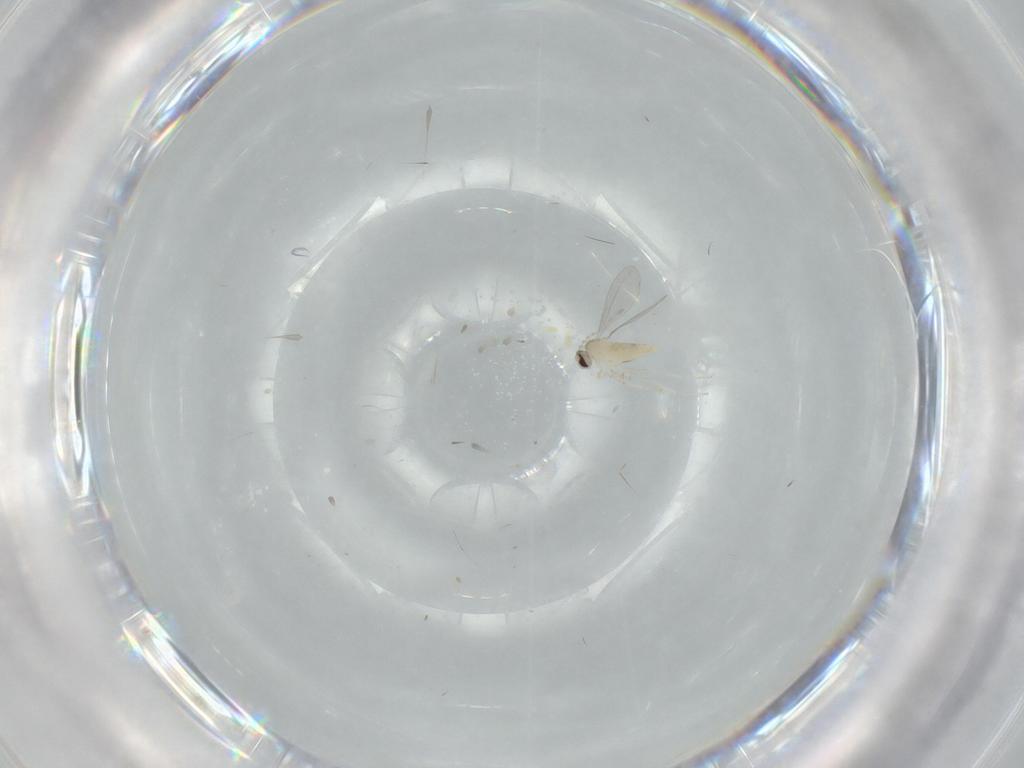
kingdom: Animalia
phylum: Arthropoda
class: Insecta
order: Diptera
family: Cecidomyiidae
